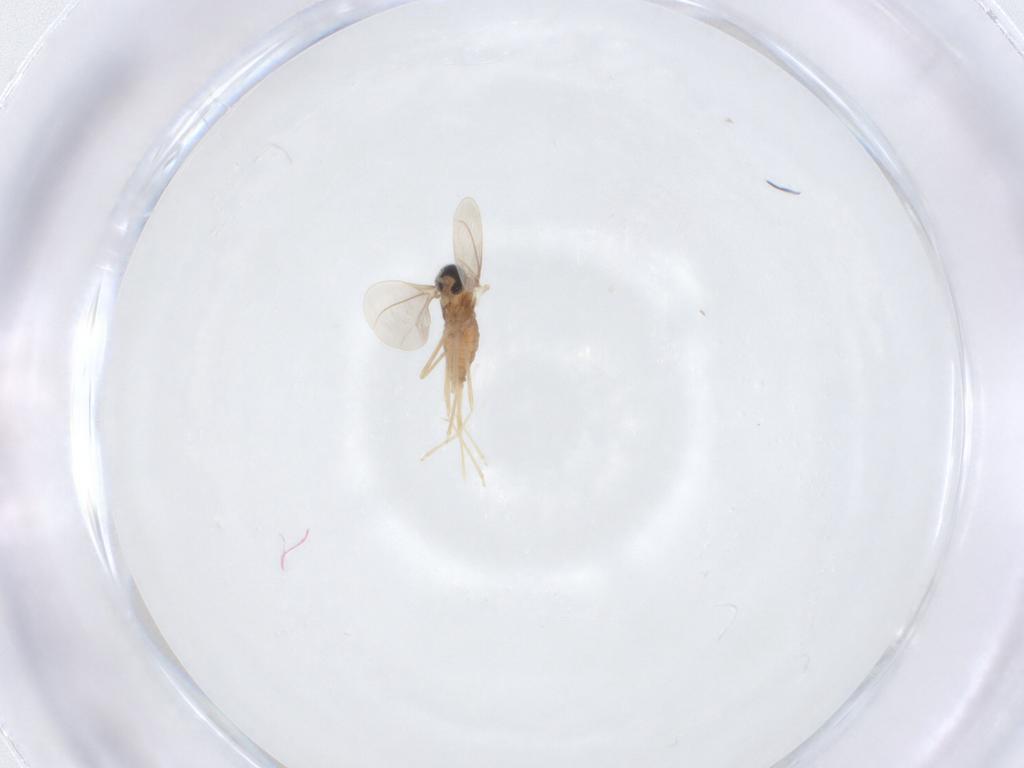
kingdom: Animalia
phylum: Arthropoda
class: Insecta
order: Diptera
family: Cecidomyiidae
